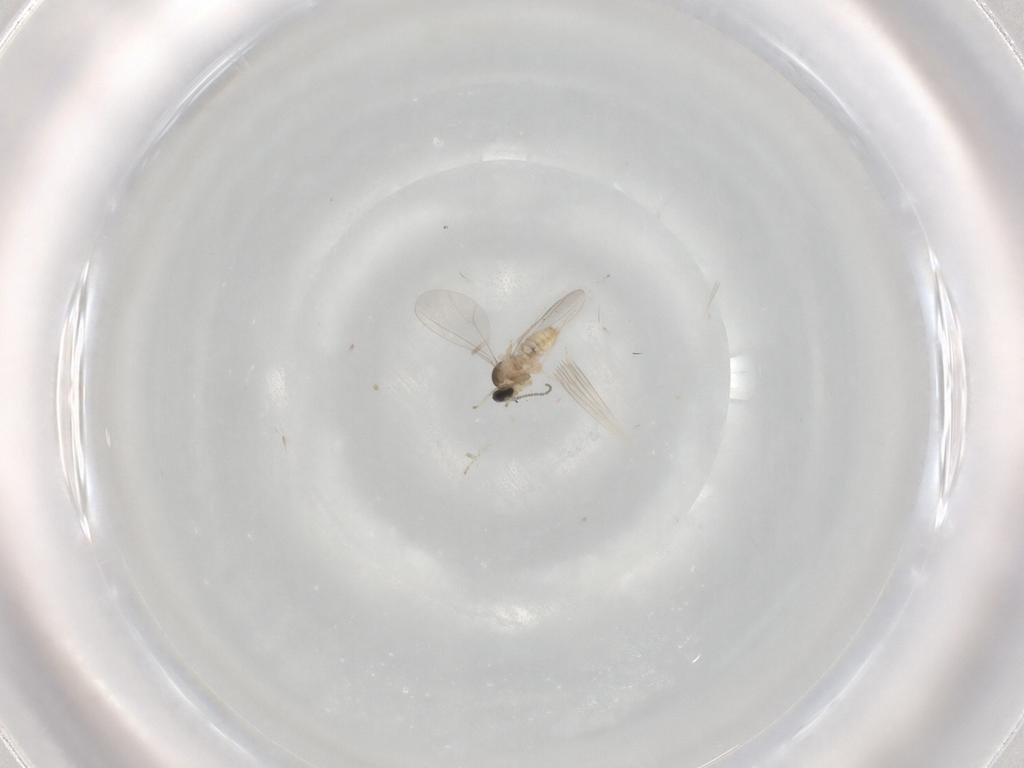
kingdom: Animalia
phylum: Arthropoda
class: Insecta
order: Diptera
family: Cecidomyiidae
